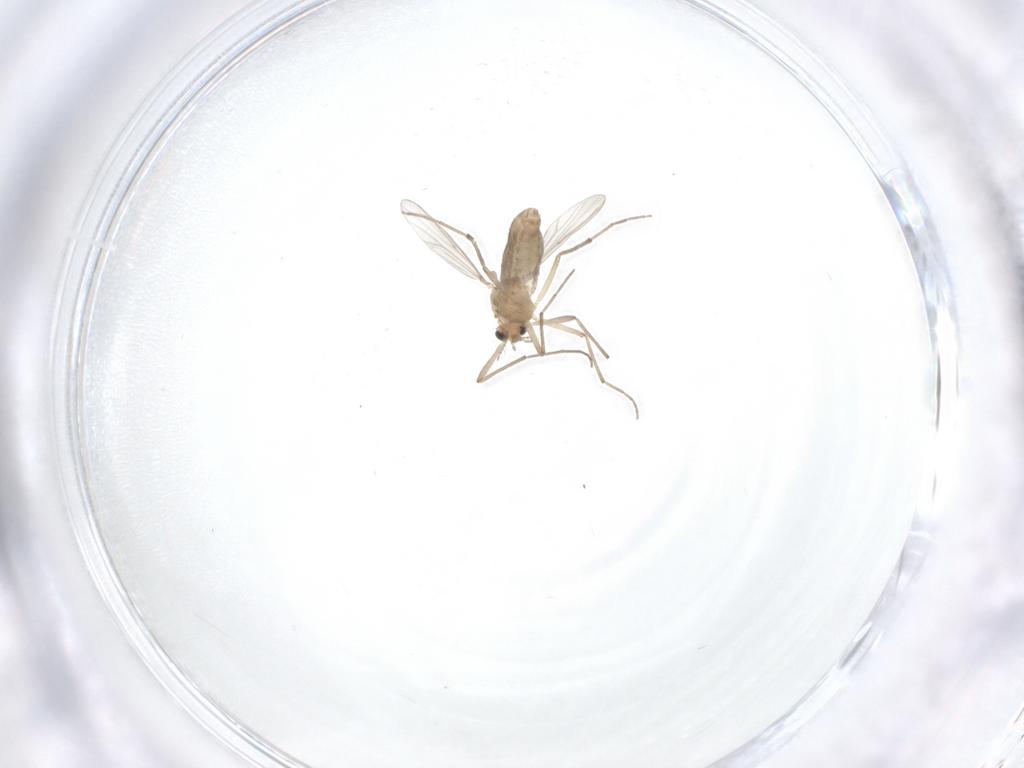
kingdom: Animalia
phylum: Arthropoda
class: Insecta
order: Diptera
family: Chironomidae
